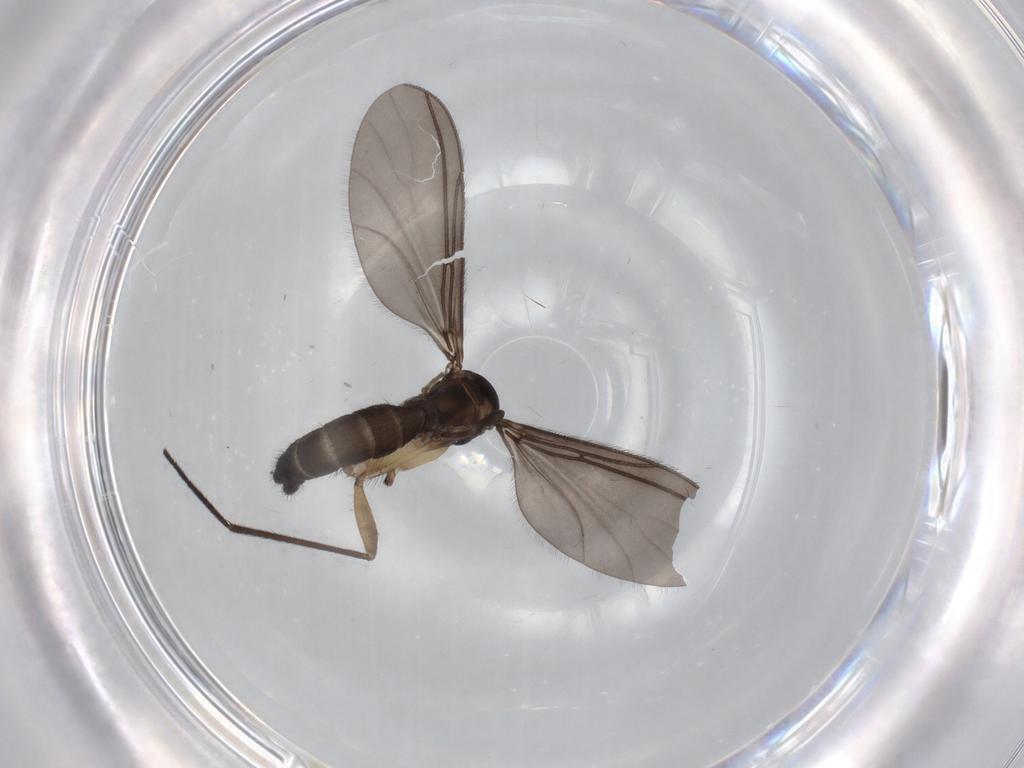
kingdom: Animalia
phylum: Arthropoda
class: Insecta
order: Diptera
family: Sciaridae
